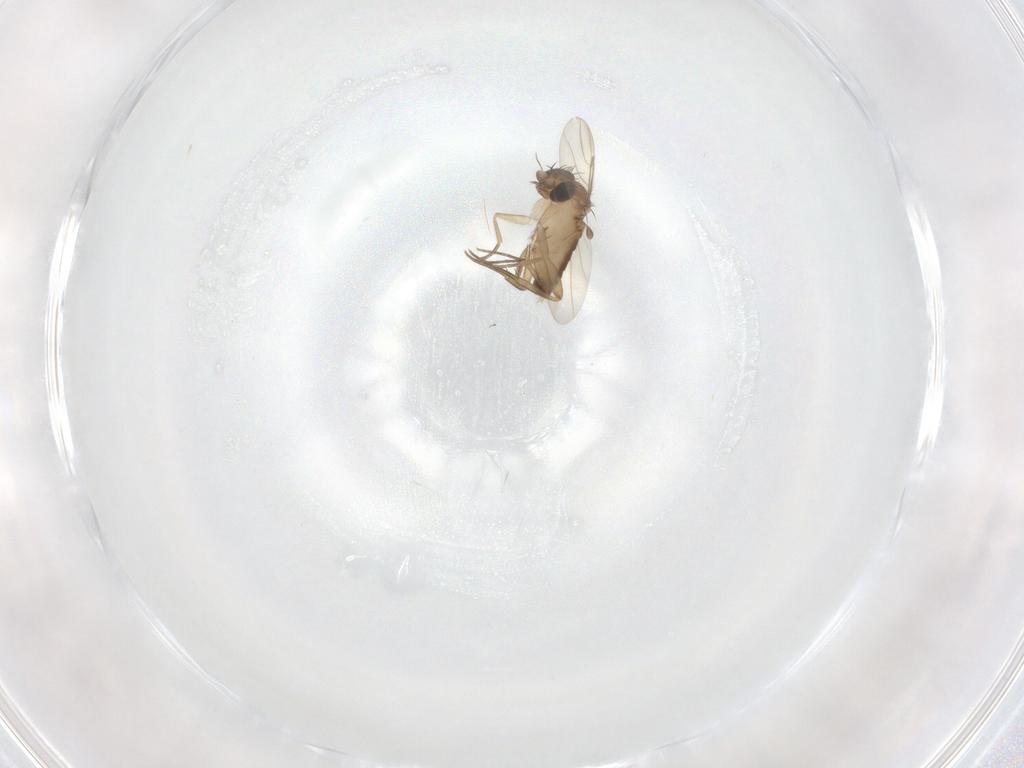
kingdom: Animalia
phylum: Arthropoda
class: Insecta
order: Diptera
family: Phoridae
